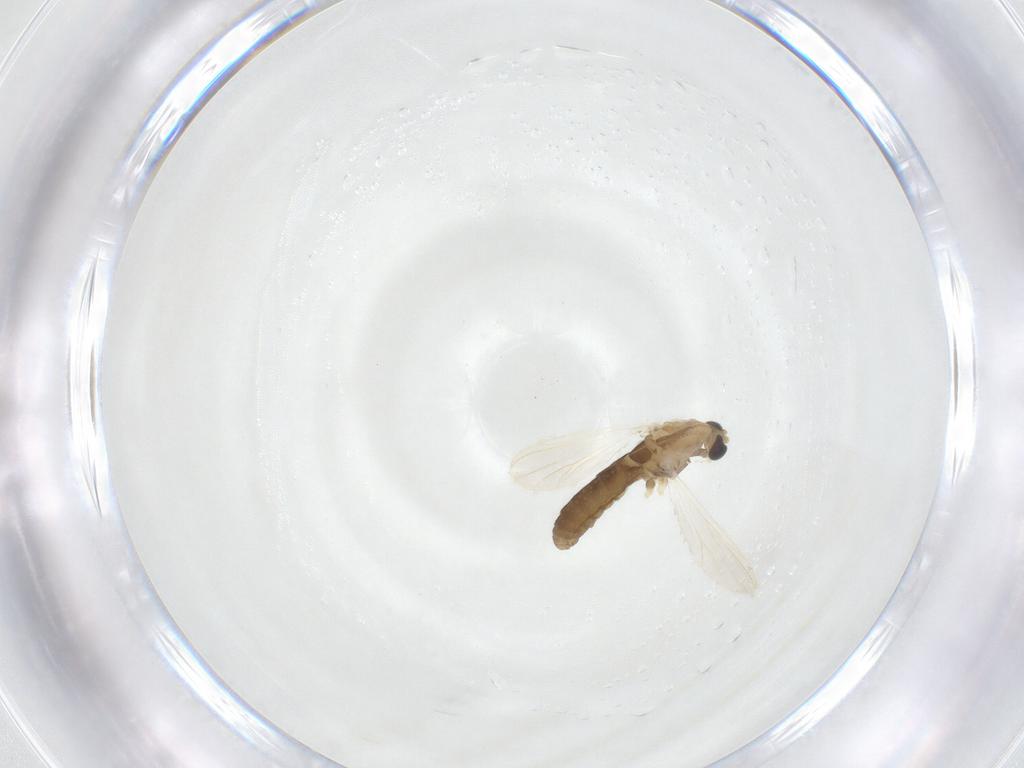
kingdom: Animalia
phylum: Arthropoda
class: Insecta
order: Diptera
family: Chironomidae
